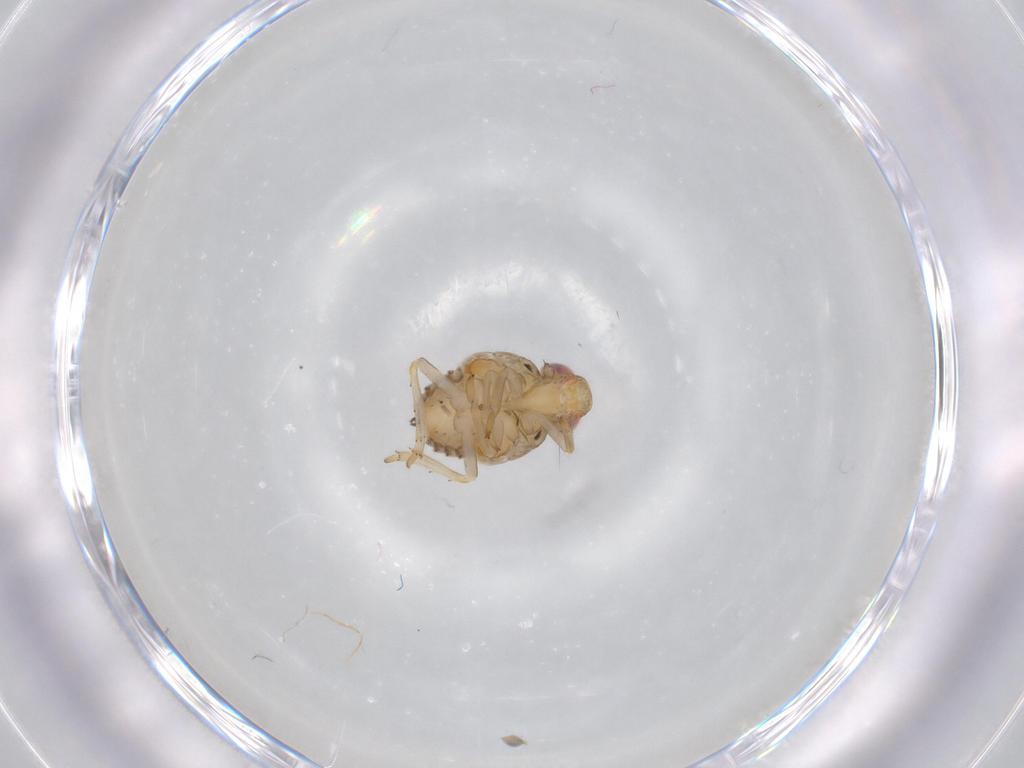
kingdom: Animalia
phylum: Arthropoda
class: Insecta
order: Hemiptera
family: Issidae
